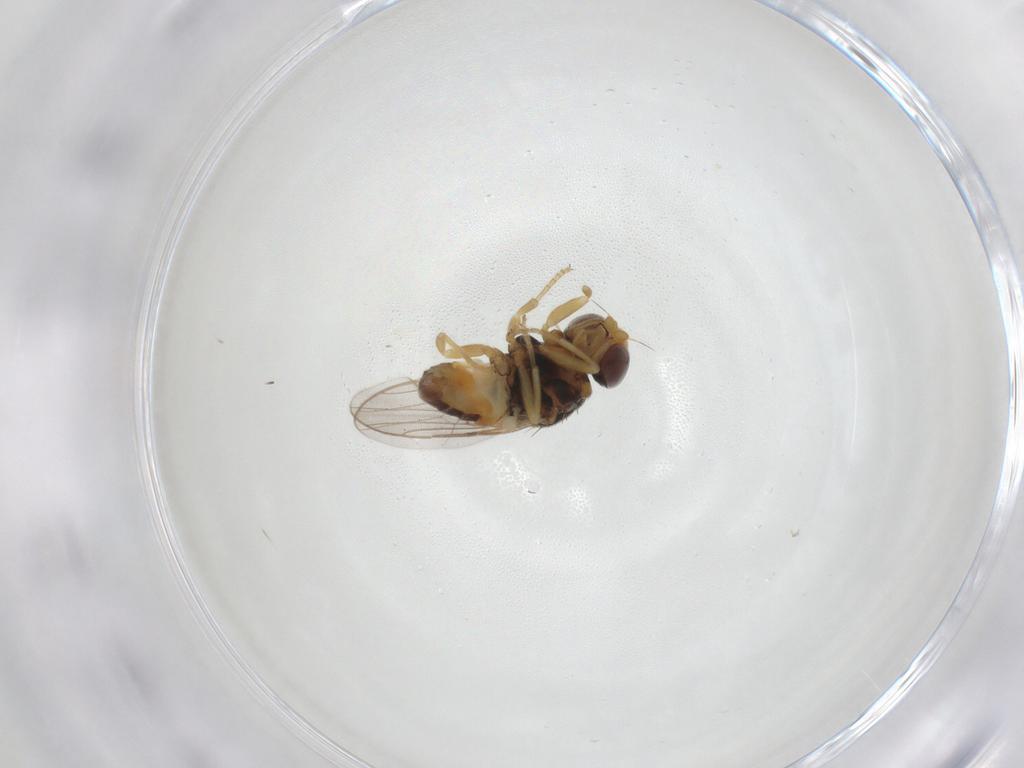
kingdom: Animalia
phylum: Arthropoda
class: Insecta
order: Diptera
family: Chloropidae
